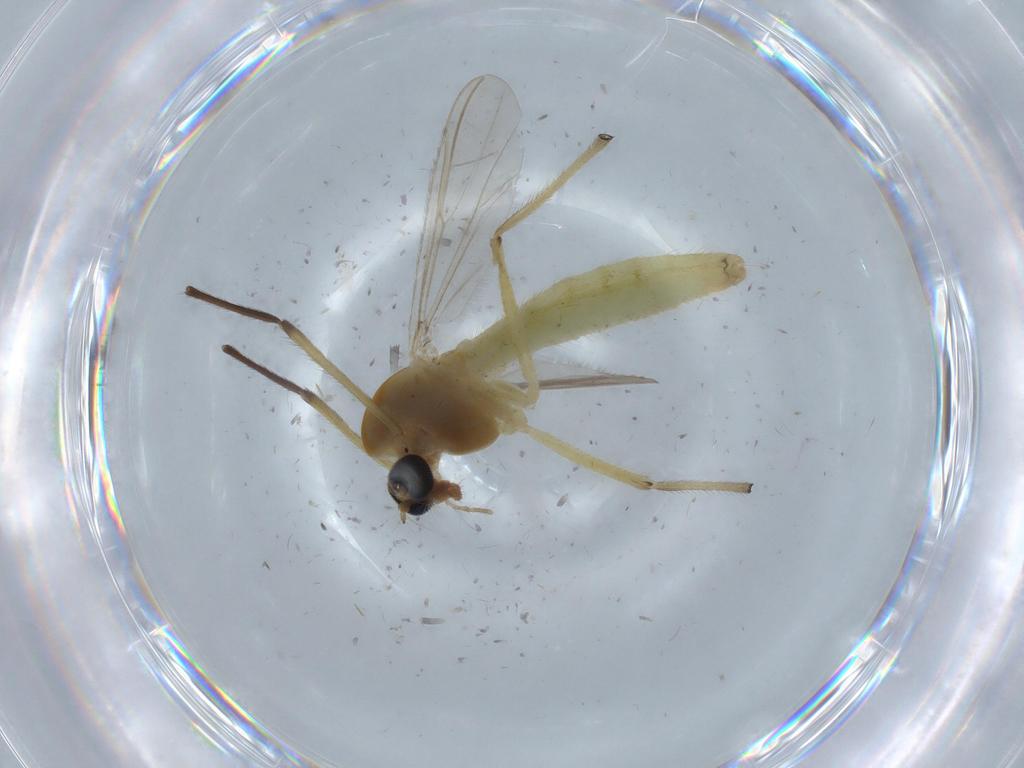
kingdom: Animalia
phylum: Arthropoda
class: Insecta
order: Diptera
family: Chironomidae
